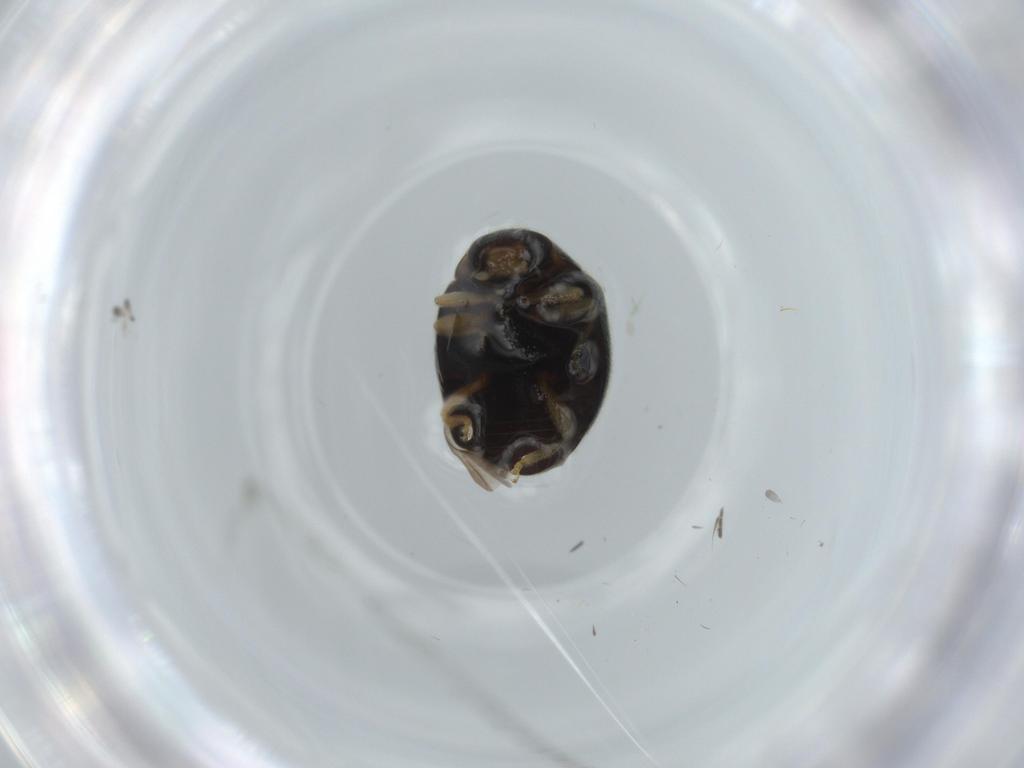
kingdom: Animalia
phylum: Arthropoda
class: Insecta
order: Coleoptera
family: Coccinellidae
